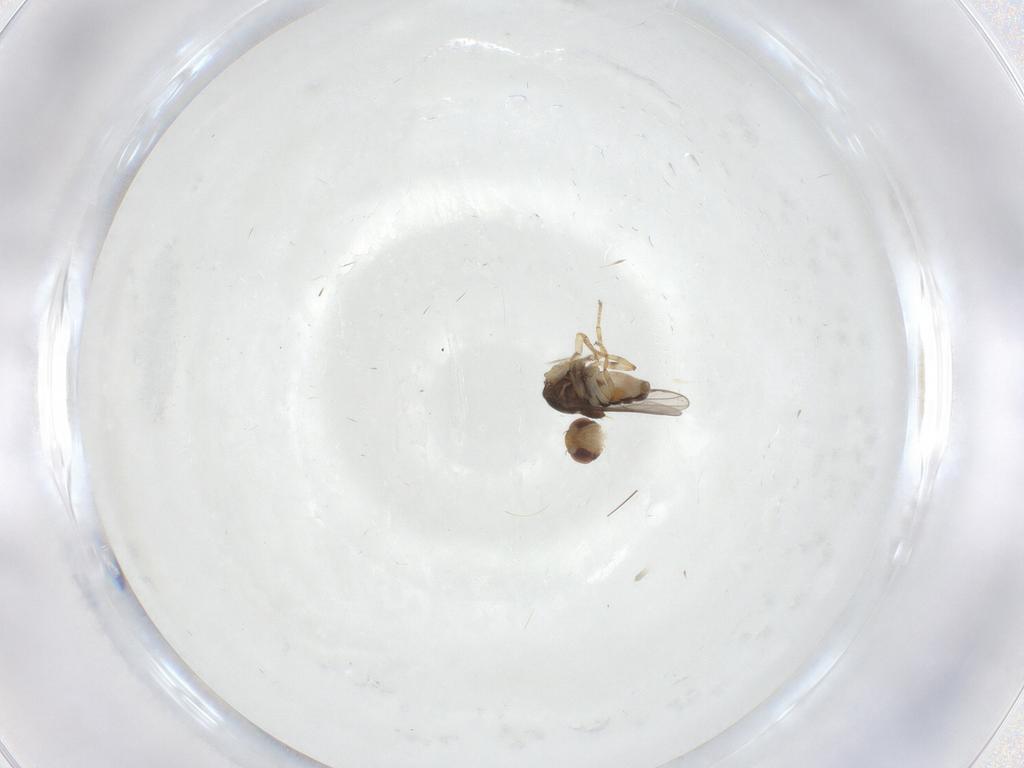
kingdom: Animalia
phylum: Arthropoda
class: Insecta
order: Diptera
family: Chloropidae
